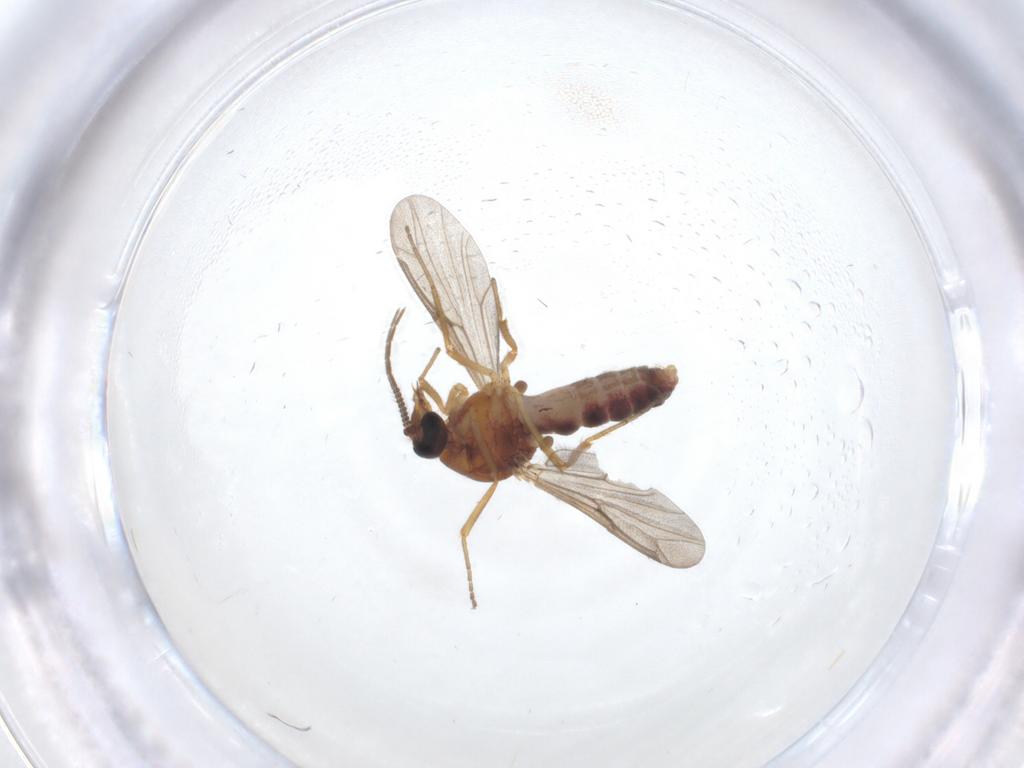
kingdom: Animalia
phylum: Arthropoda
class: Insecta
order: Diptera
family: Ceratopogonidae
